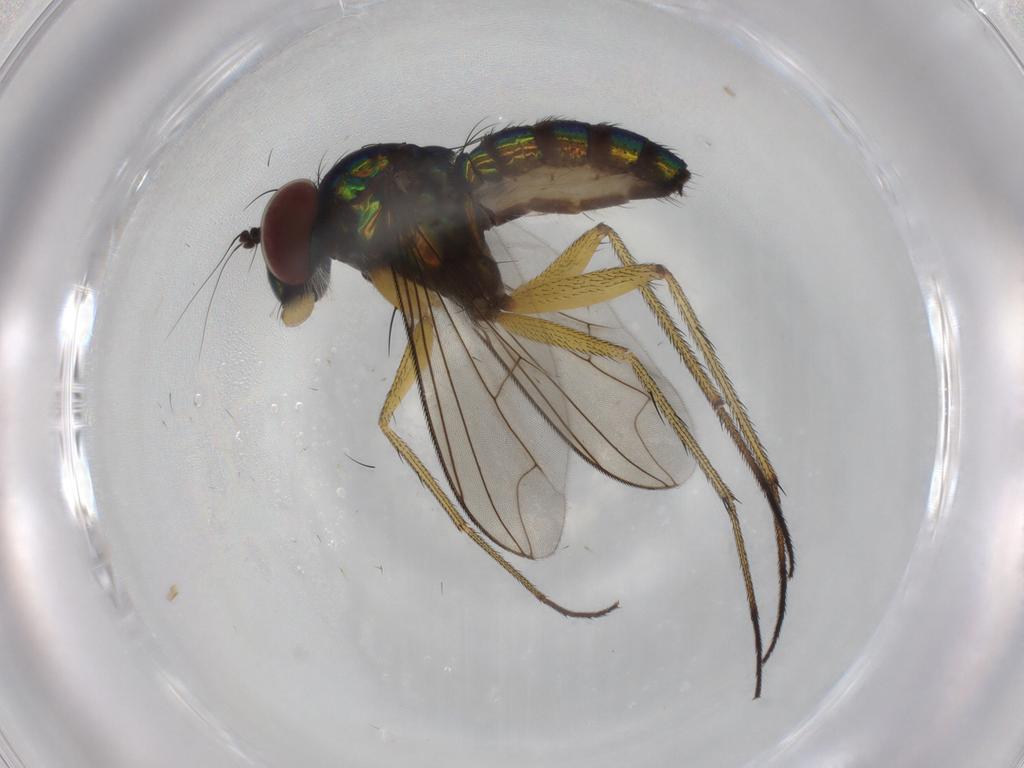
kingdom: Animalia
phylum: Arthropoda
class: Insecta
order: Diptera
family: Dolichopodidae
